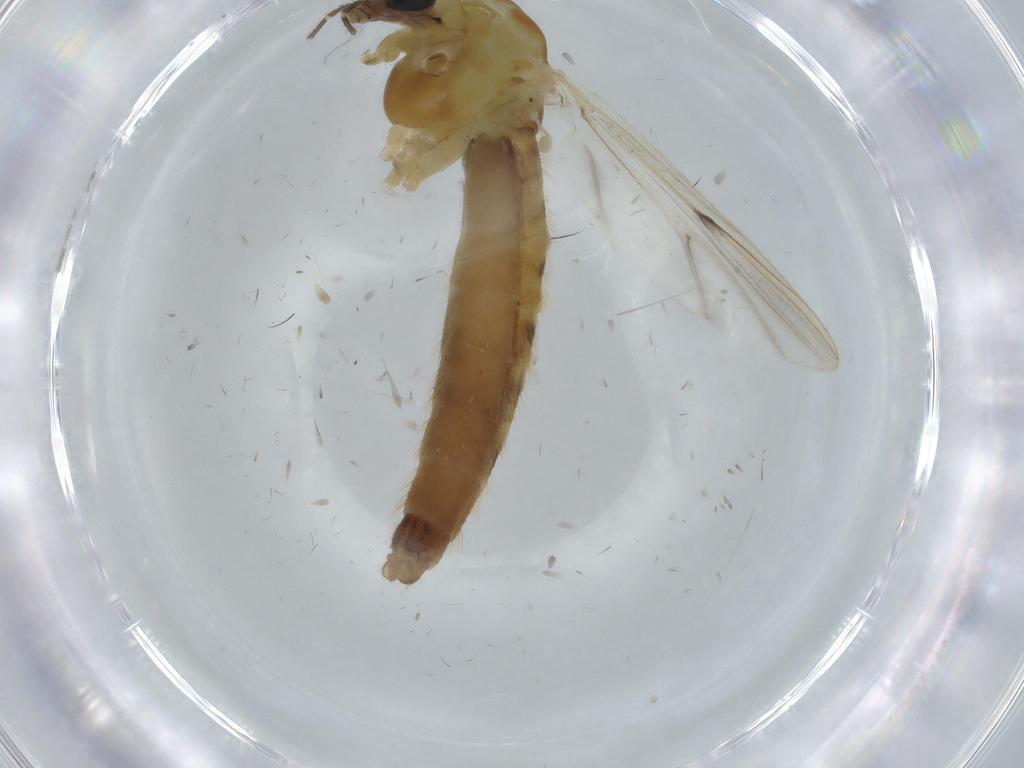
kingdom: Animalia
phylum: Arthropoda
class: Insecta
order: Diptera
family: Chironomidae
